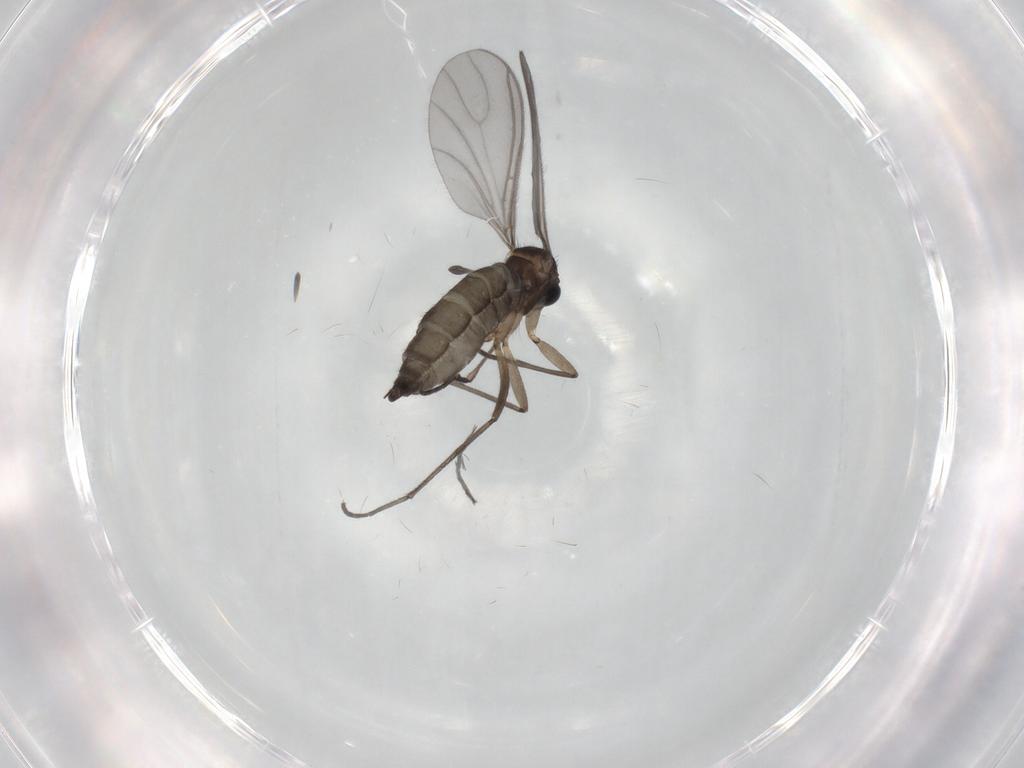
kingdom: Animalia
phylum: Arthropoda
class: Insecta
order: Diptera
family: Sciaridae
